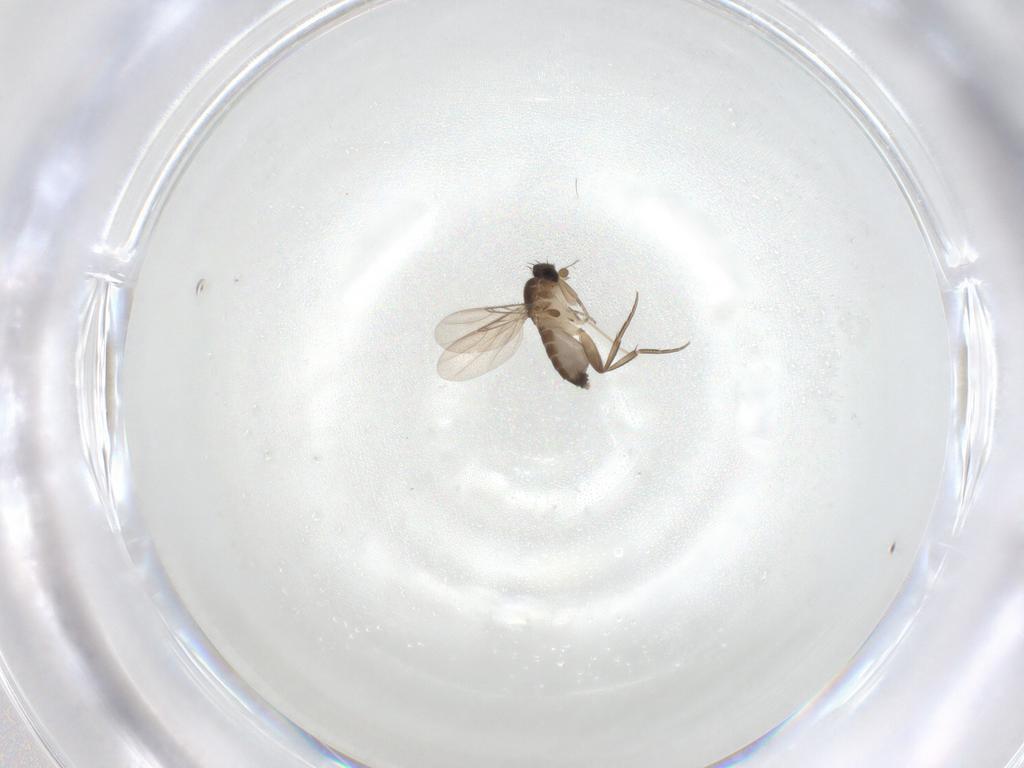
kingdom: Animalia
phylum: Arthropoda
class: Insecta
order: Diptera
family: Phoridae
